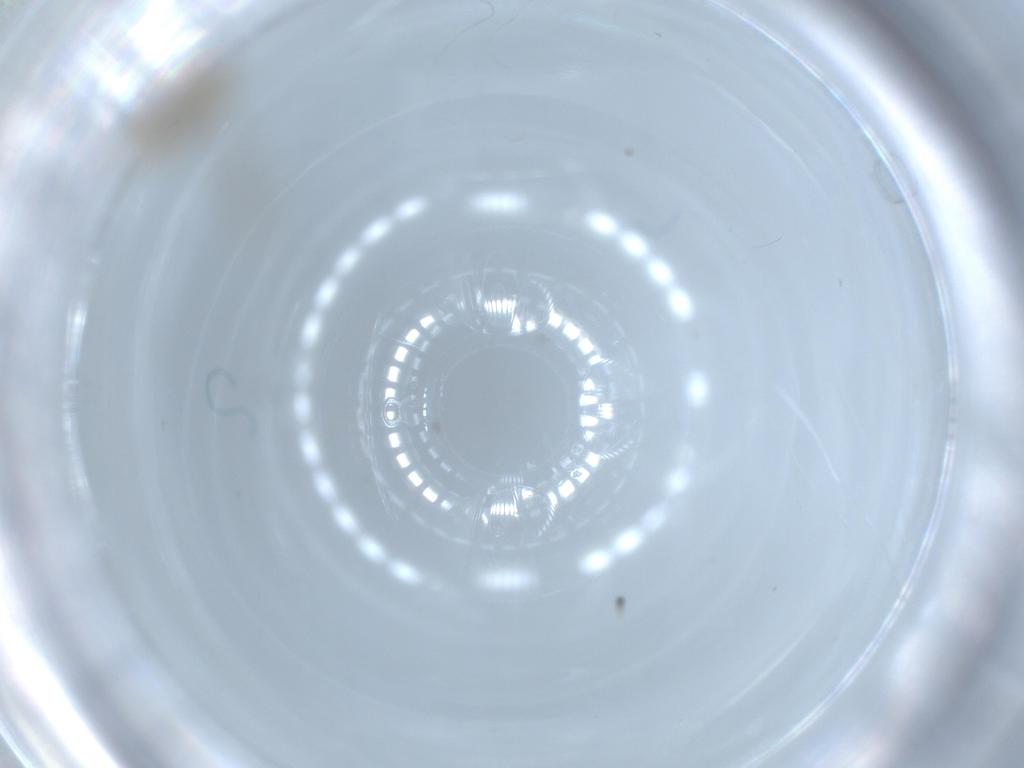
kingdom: Animalia
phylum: Arthropoda
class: Insecta
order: Diptera
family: Cecidomyiidae
